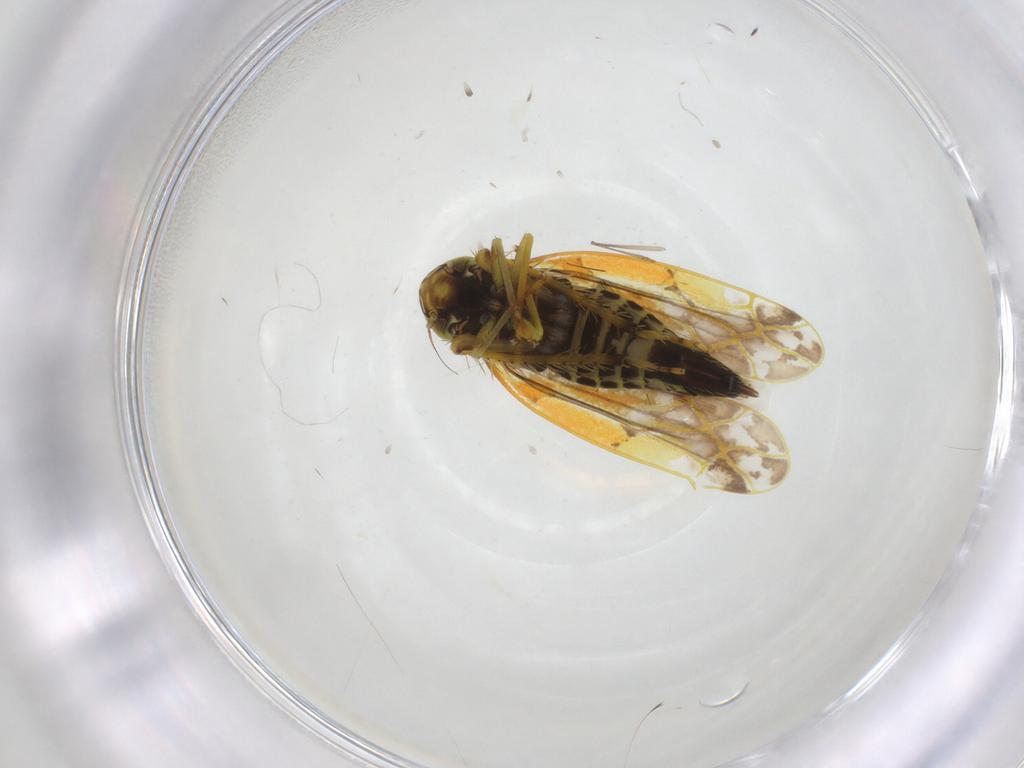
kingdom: Animalia
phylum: Arthropoda
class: Insecta
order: Hemiptera
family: Cicadellidae
